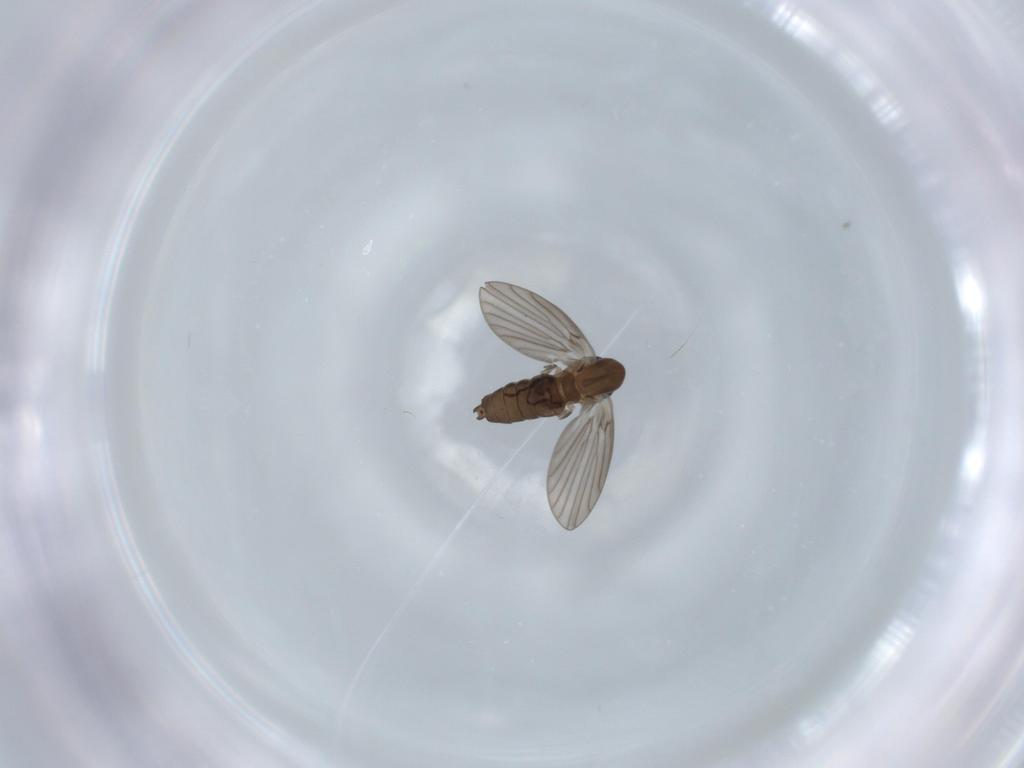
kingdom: Animalia
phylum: Arthropoda
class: Insecta
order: Diptera
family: Psychodidae
